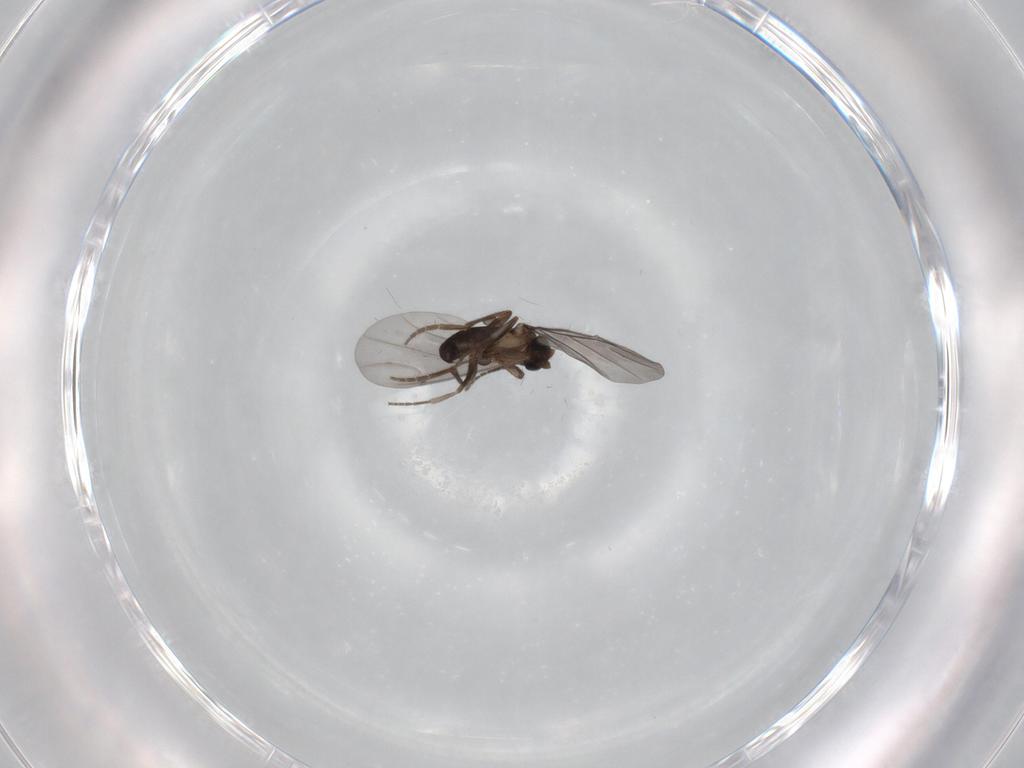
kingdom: Animalia
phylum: Arthropoda
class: Insecta
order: Diptera
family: Phoridae
